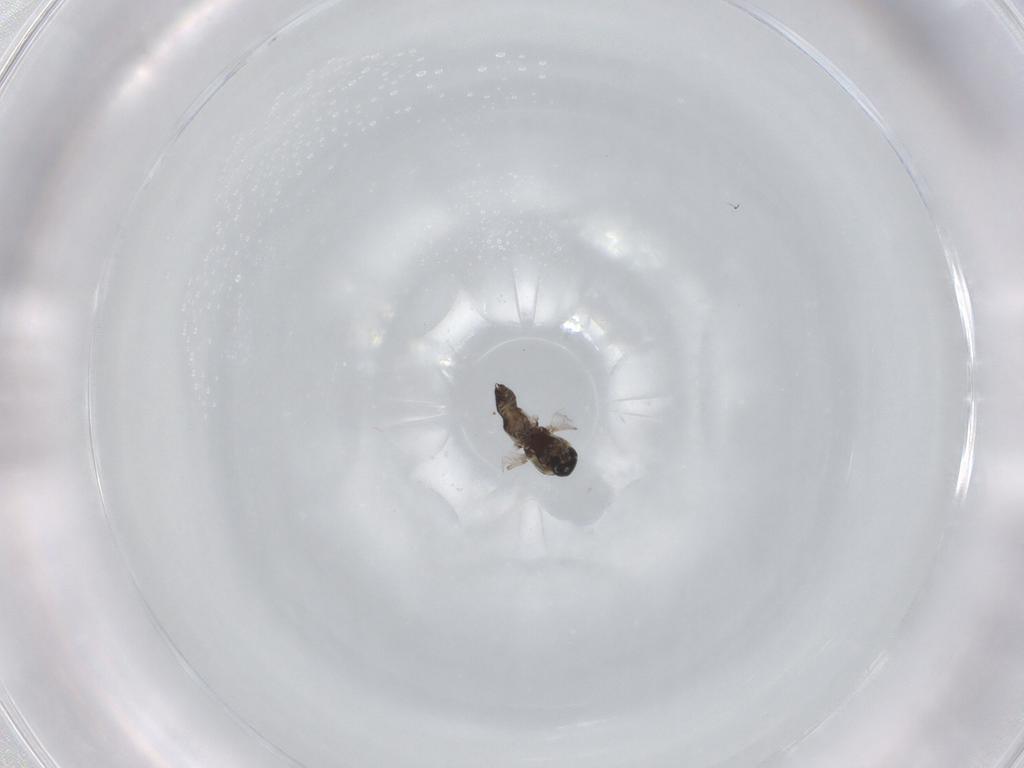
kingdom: Animalia
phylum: Arthropoda
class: Insecta
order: Diptera
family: Ceratopogonidae
